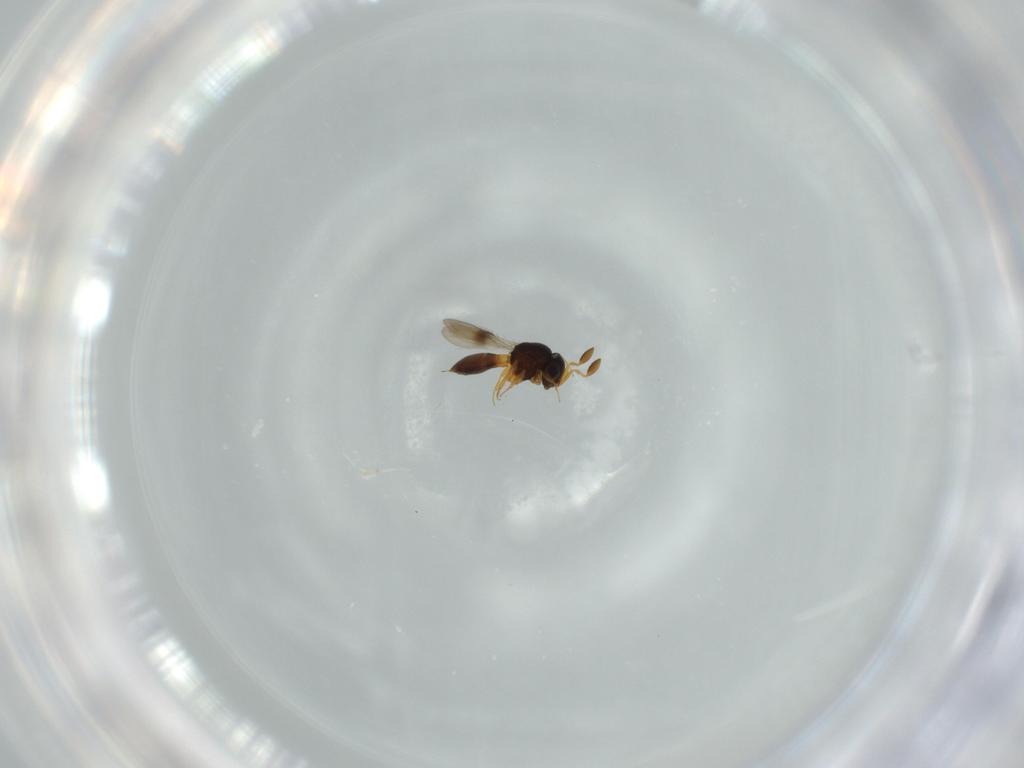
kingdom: Animalia
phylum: Arthropoda
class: Insecta
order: Hymenoptera
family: Scelionidae
